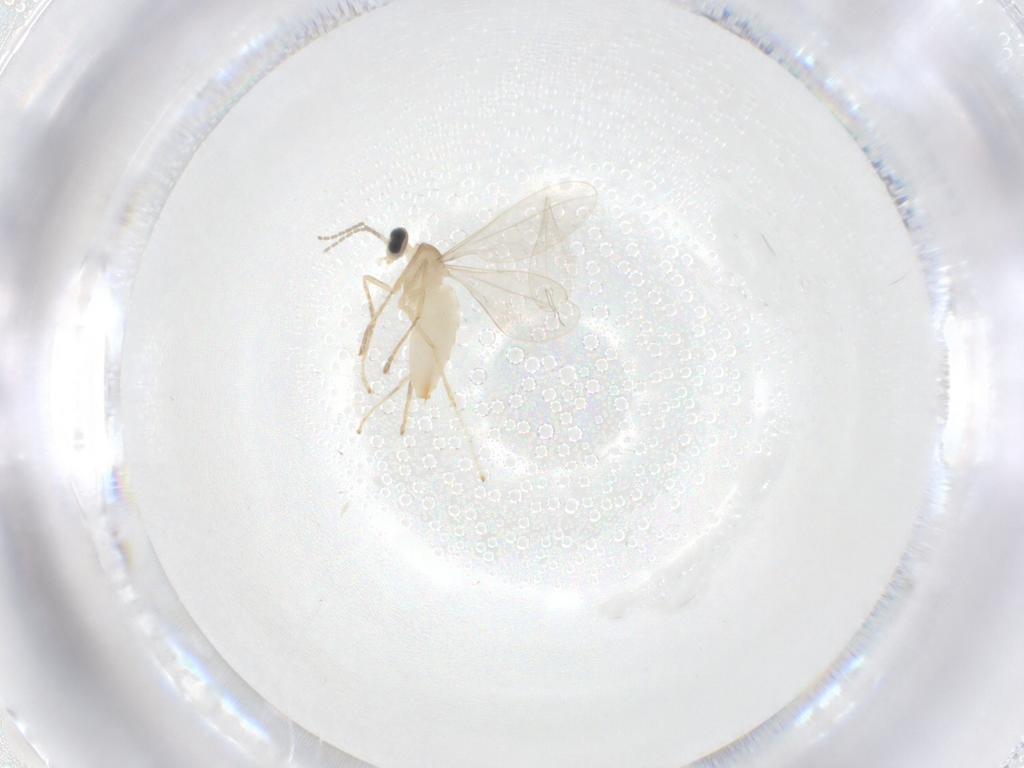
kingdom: Animalia
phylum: Arthropoda
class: Insecta
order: Diptera
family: Cecidomyiidae
